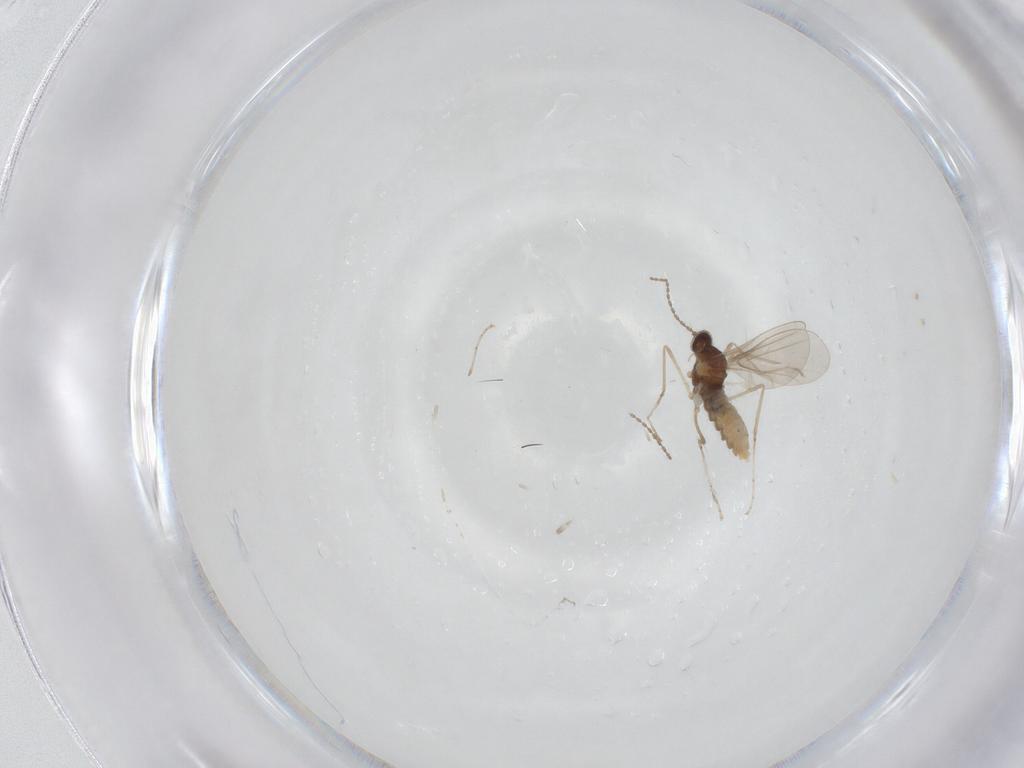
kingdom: Animalia
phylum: Arthropoda
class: Insecta
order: Diptera
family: Cecidomyiidae
